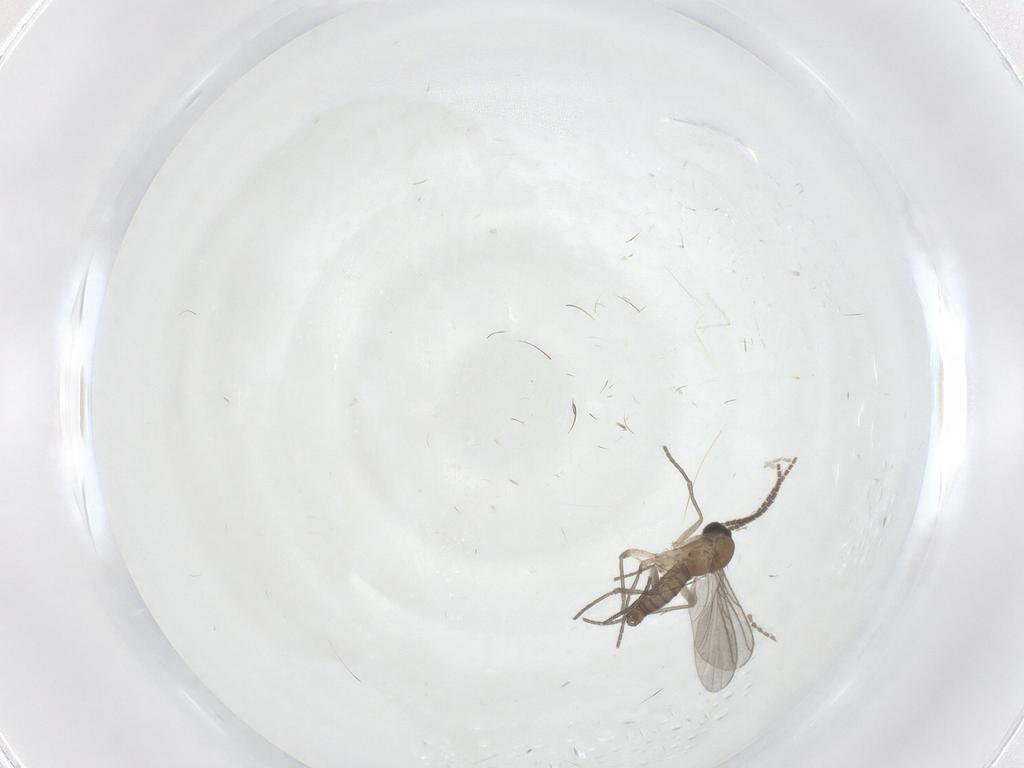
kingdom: Animalia
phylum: Arthropoda
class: Insecta
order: Diptera
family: Sciaridae
